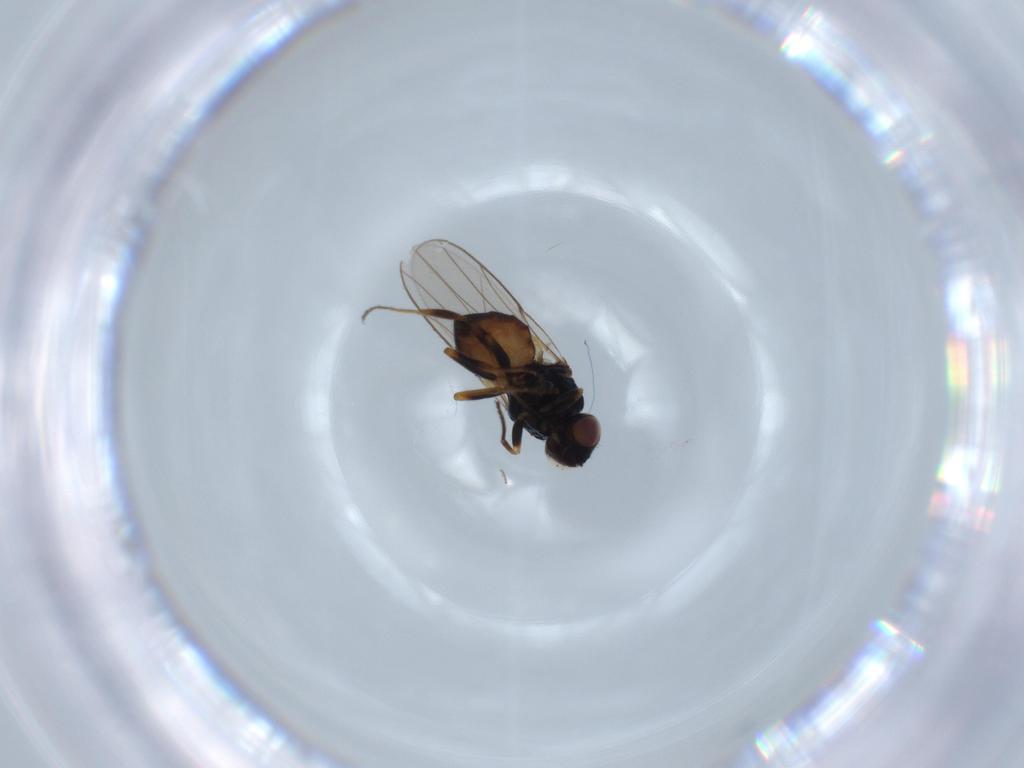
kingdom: Animalia
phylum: Arthropoda
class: Insecta
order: Diptera
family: Chloropidae
